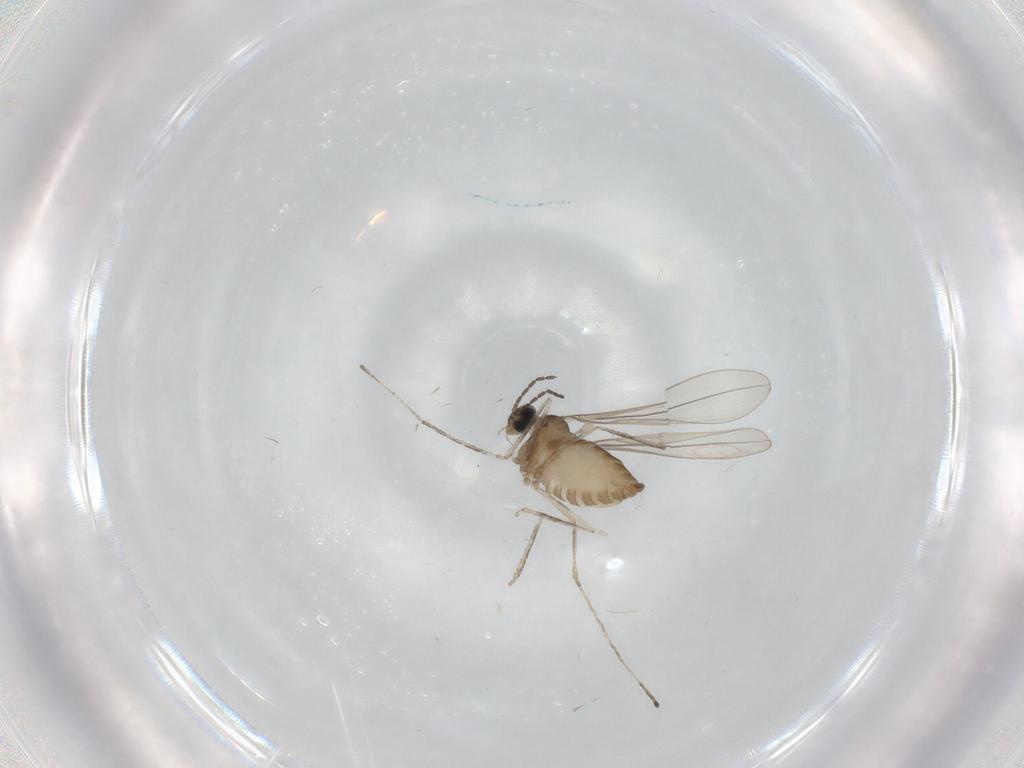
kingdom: Animalia
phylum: Arthropoda
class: Insecta
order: Diptera
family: Cecidomyiidae
